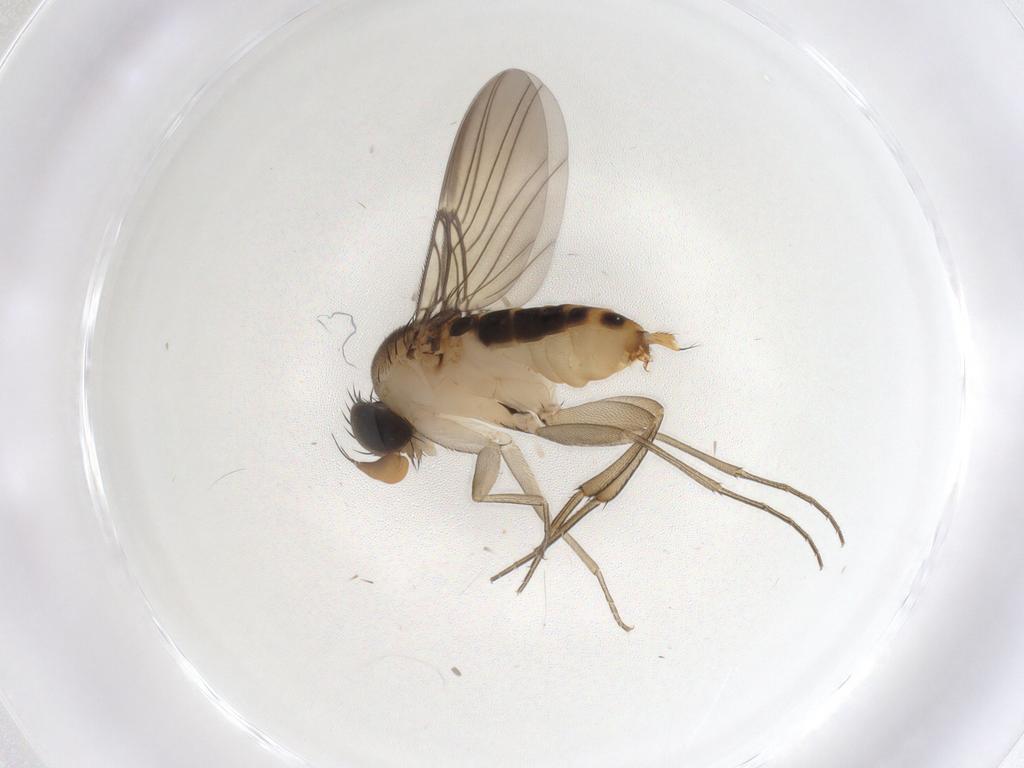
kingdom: Animalia
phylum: Arthropoda
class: Insecta
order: Diptera
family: Phoridae
